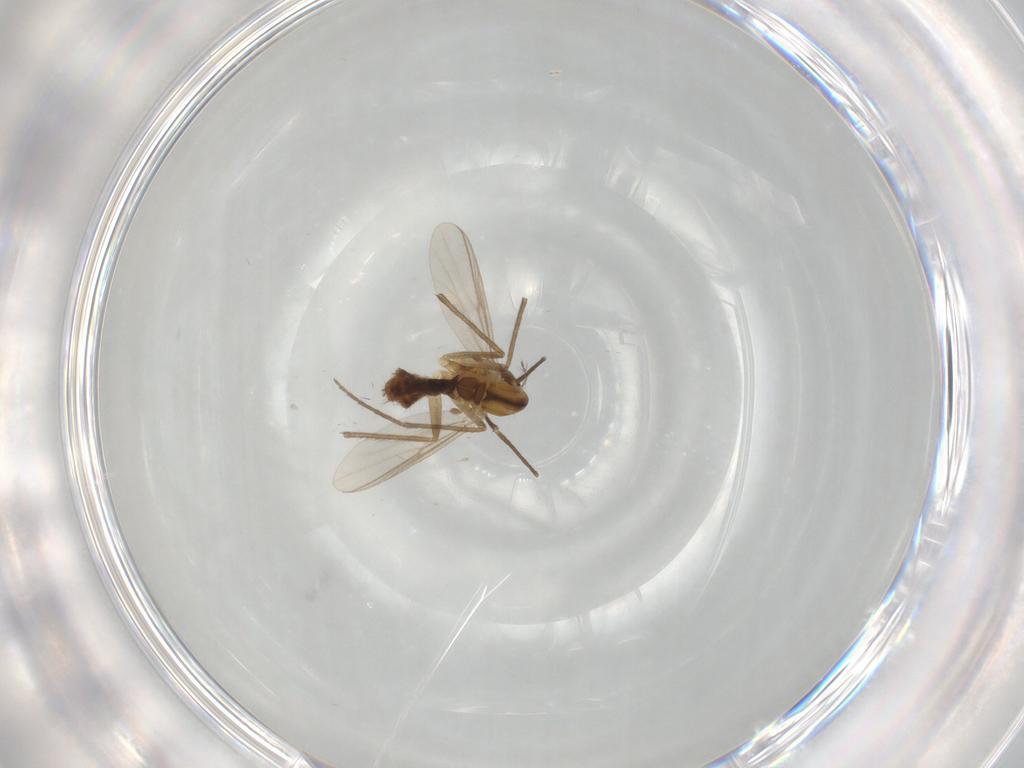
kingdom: Animalia
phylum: Arthropoda
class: Insecta
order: Diptera
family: Chironomidae
